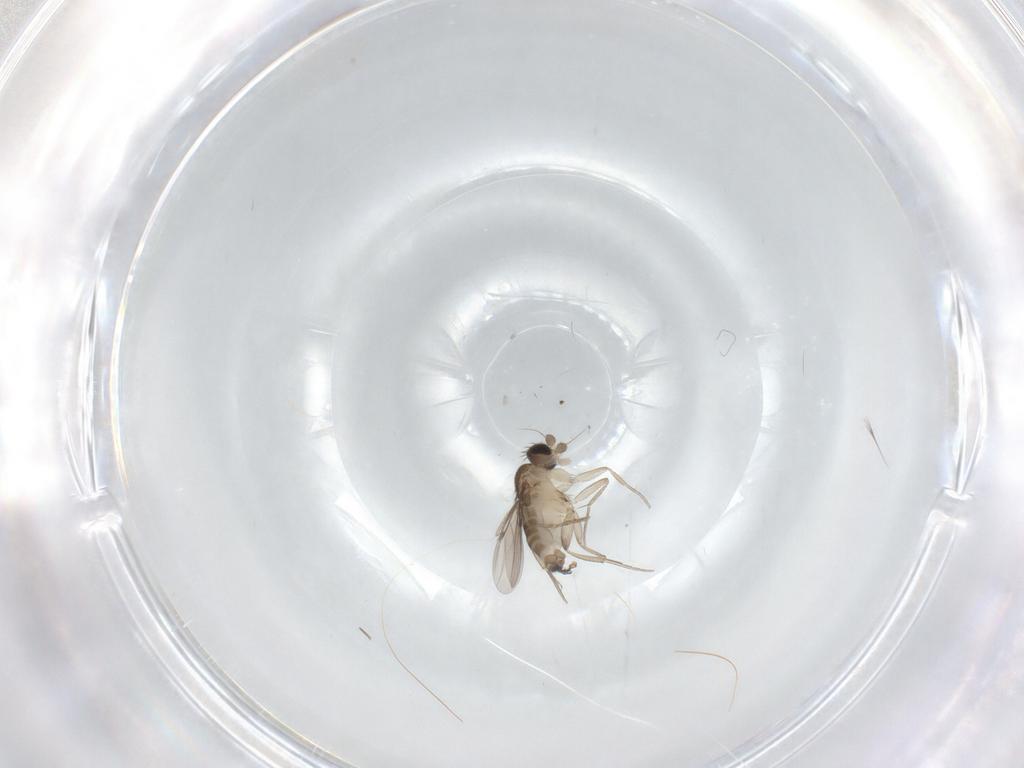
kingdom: Animalia
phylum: Arthropoda
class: Insecta
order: Diptera
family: Phoridae
